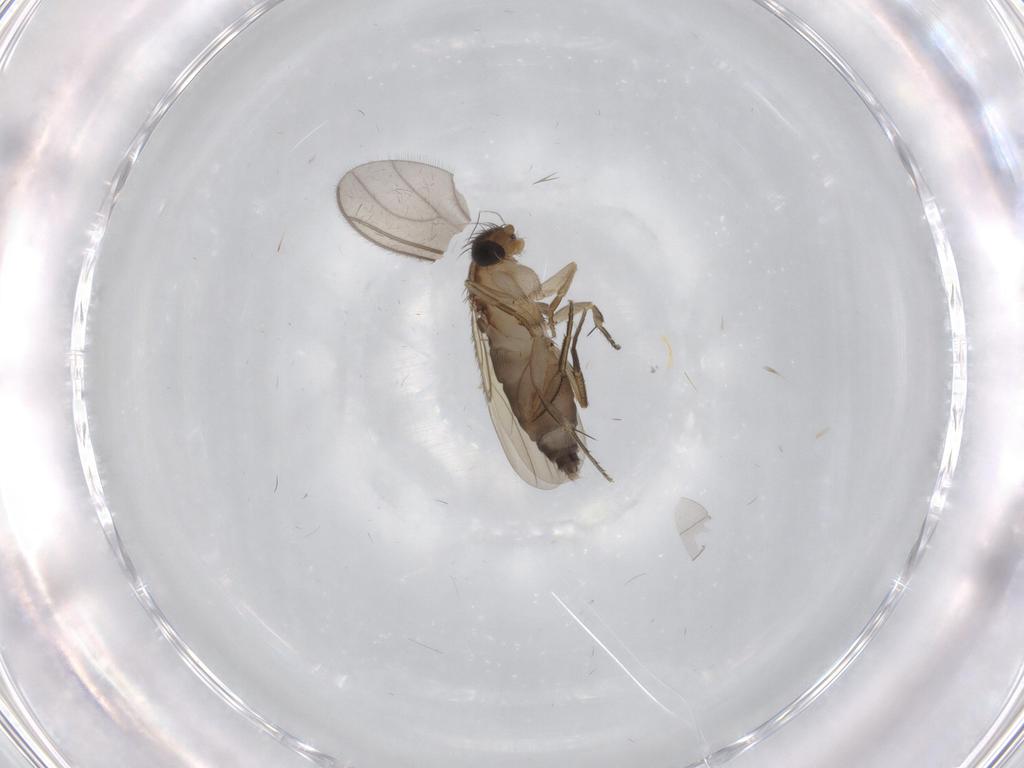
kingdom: Animalia
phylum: Arthropoda
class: Insecta
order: Diptera
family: Phoridae
